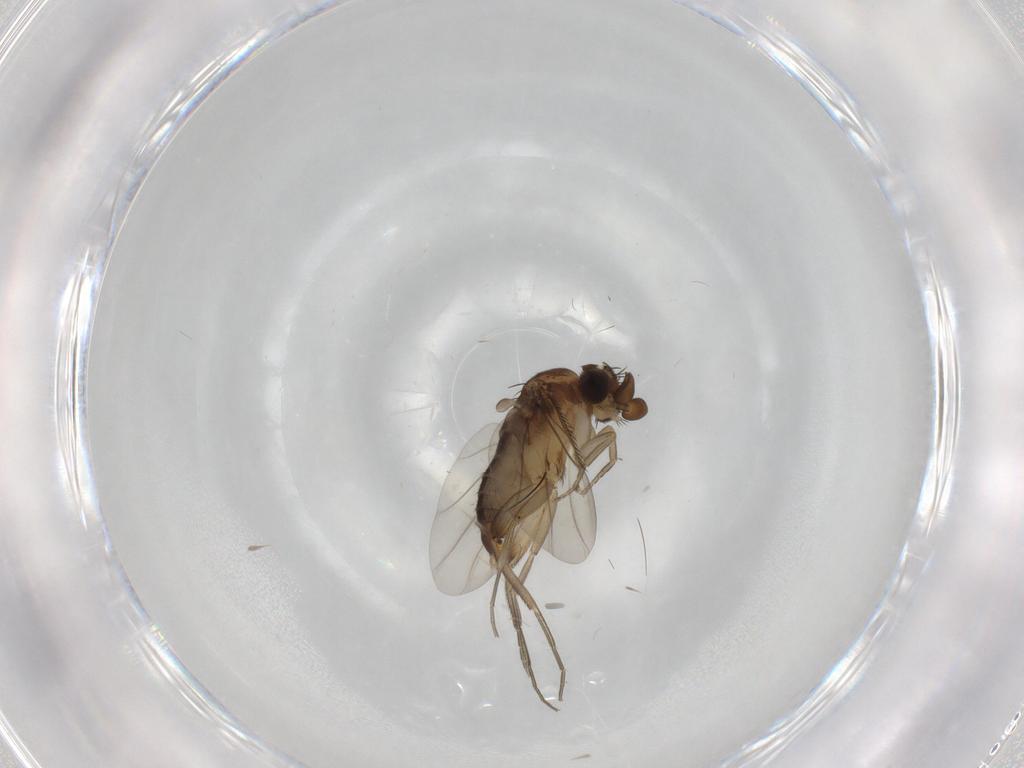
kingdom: Animalia
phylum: Arthropoda
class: Insecta
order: Diptera
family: Phoridae
